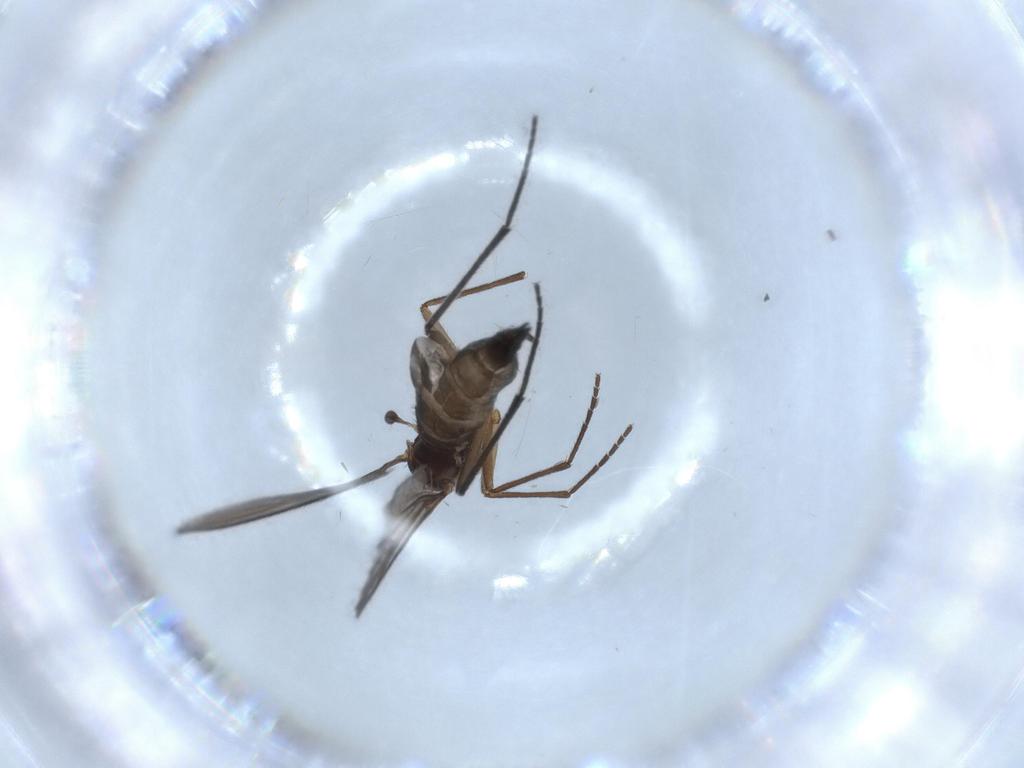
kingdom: Animalia
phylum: Arthropoda
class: Insecta
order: Diptera
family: Sciaridae
